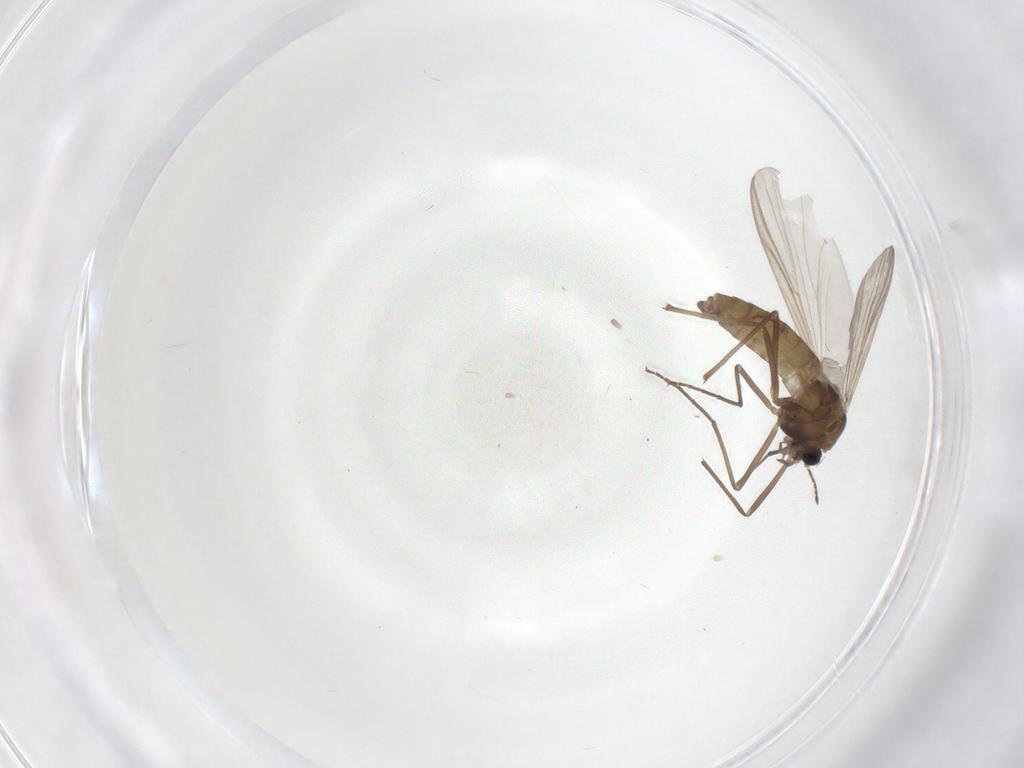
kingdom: Animalia
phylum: Arthropoda
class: Insecta
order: Diptera
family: Chironomidae
